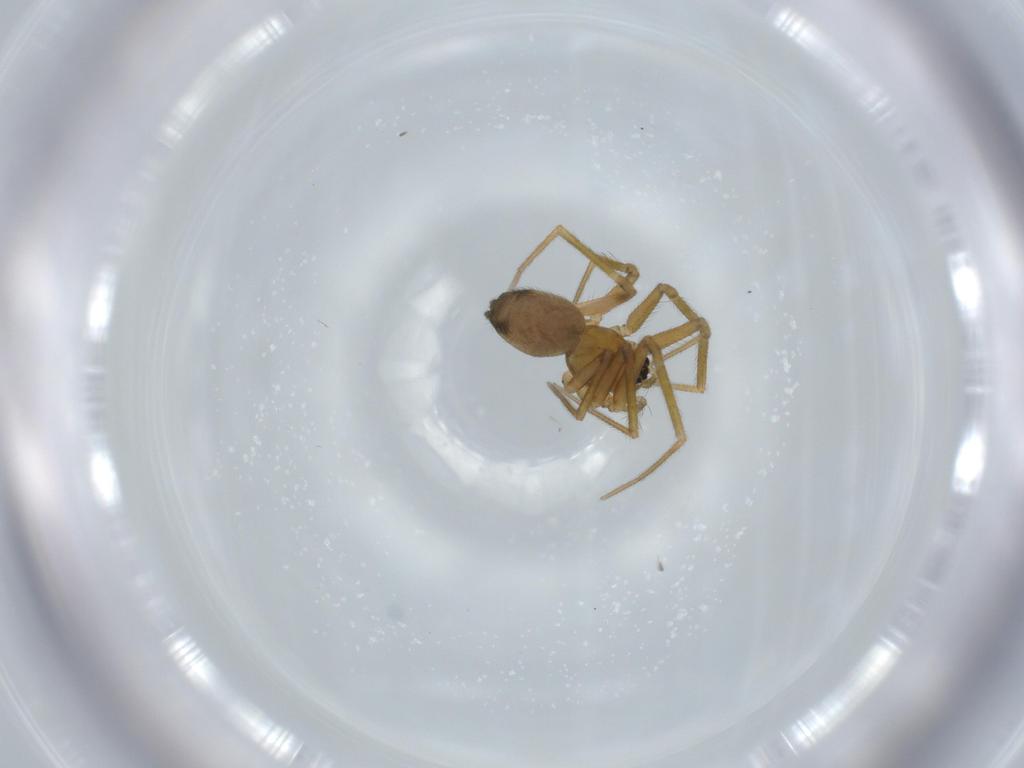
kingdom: Animalia
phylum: Arthropoda
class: Arachnida
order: Araneae
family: Linyphiidae
